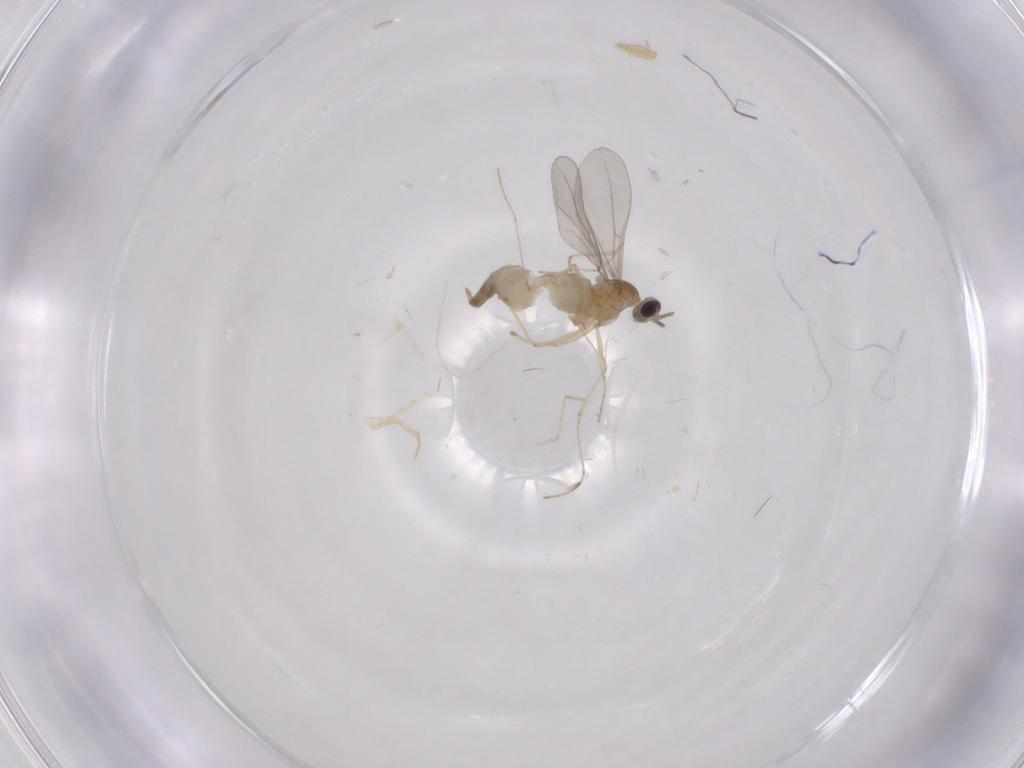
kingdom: Animalia
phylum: Arthropoda
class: Insecta
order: Diptera
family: Cecidomyiidae
